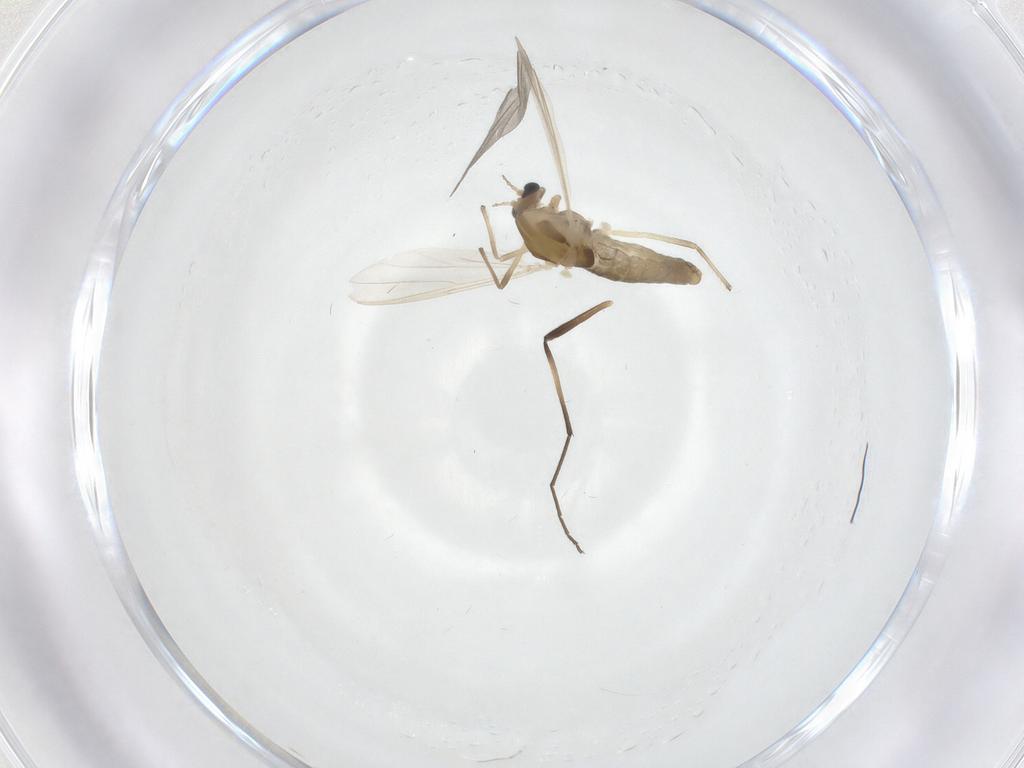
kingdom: Animalia
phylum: Arthropoda
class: Insecta
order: Diptera
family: Chironomidae
